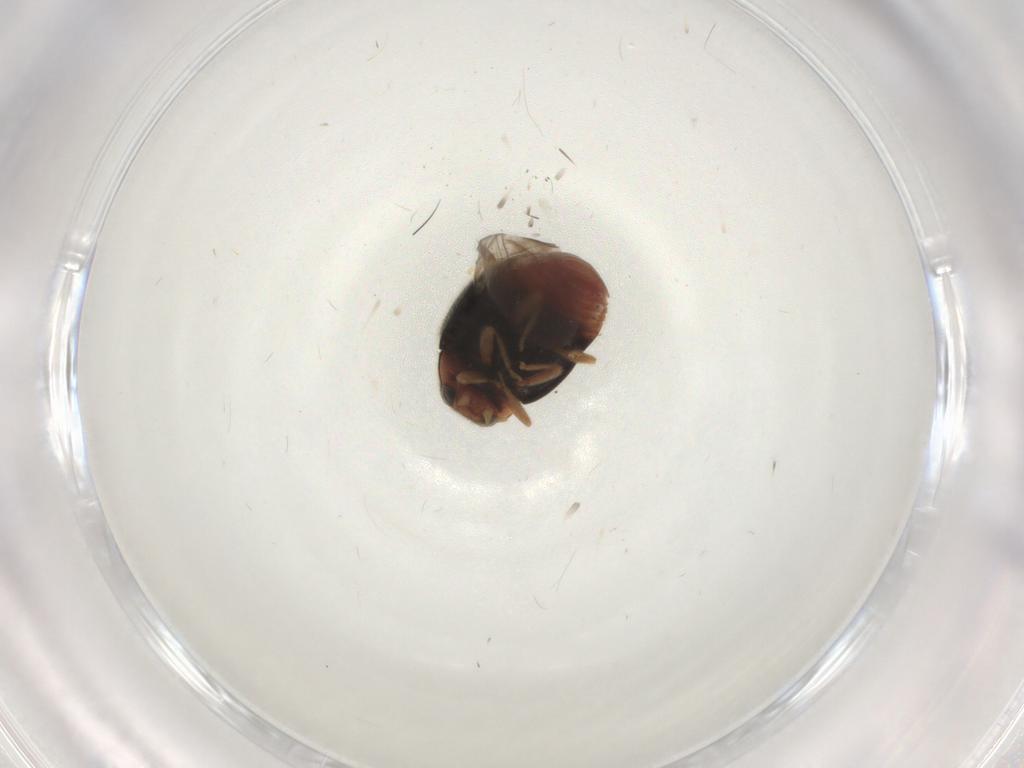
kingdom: Animalia
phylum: Arthropoda
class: Insecta
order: Coleoptera
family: Coccinellidae
